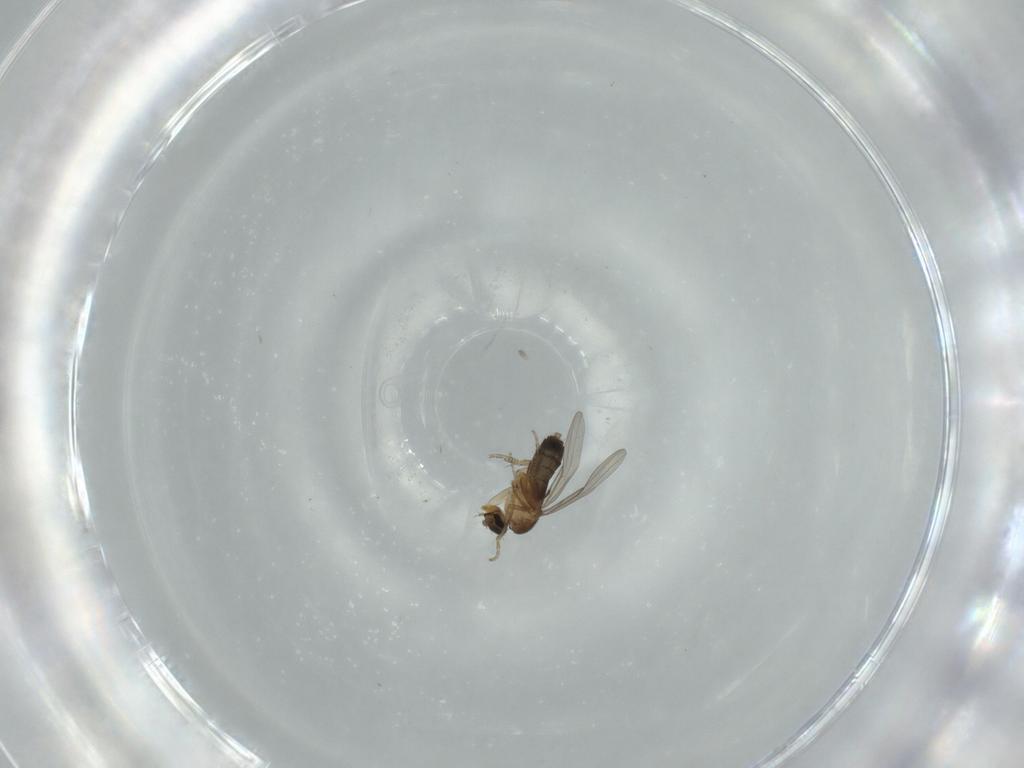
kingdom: Animalia
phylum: Arthropoda
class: Insecta
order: Diptera
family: Phoridae
